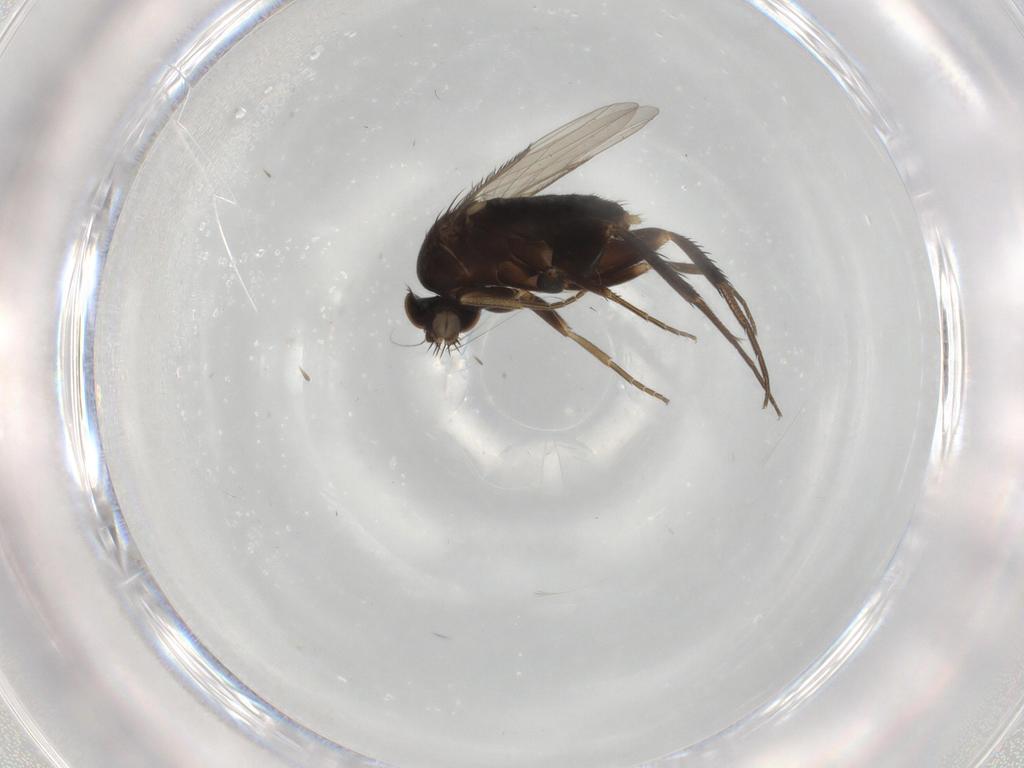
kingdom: Animalia
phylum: Arthropoda
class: Insecta
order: Diptera
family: Phoridae
